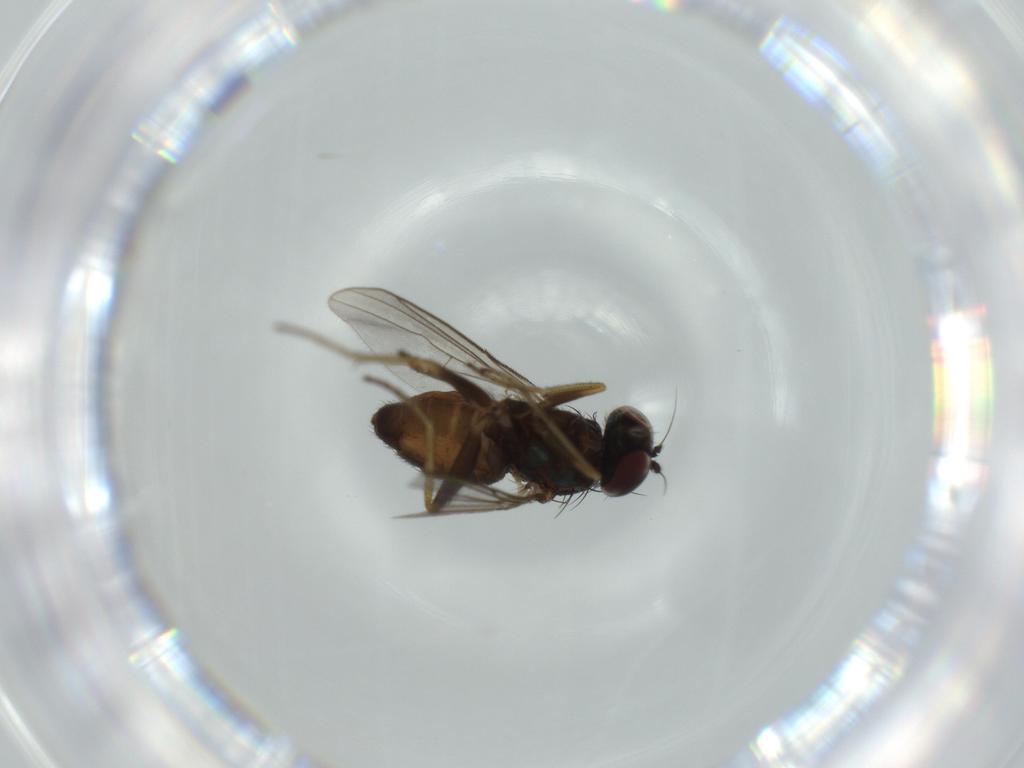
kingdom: Animalia
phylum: Arthropoda
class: Insecta
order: Diptera
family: Dolichopodidae
